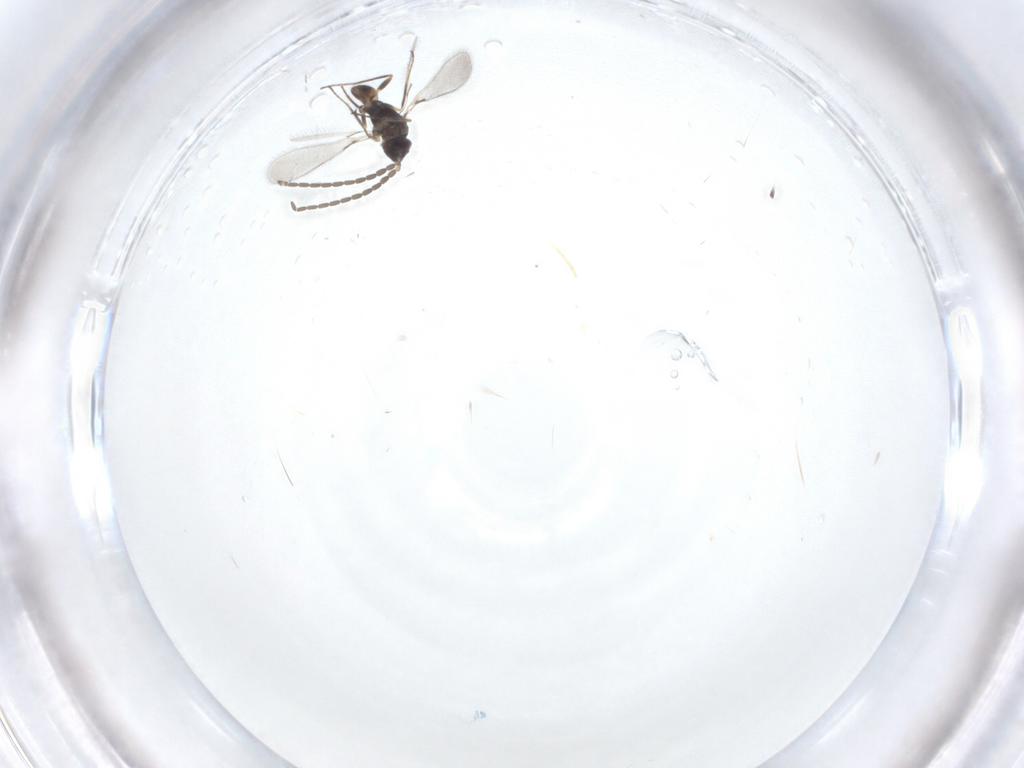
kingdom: Animalia
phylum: Arthropoda
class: Insecta
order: Hymenoptera
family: Mymaridae
